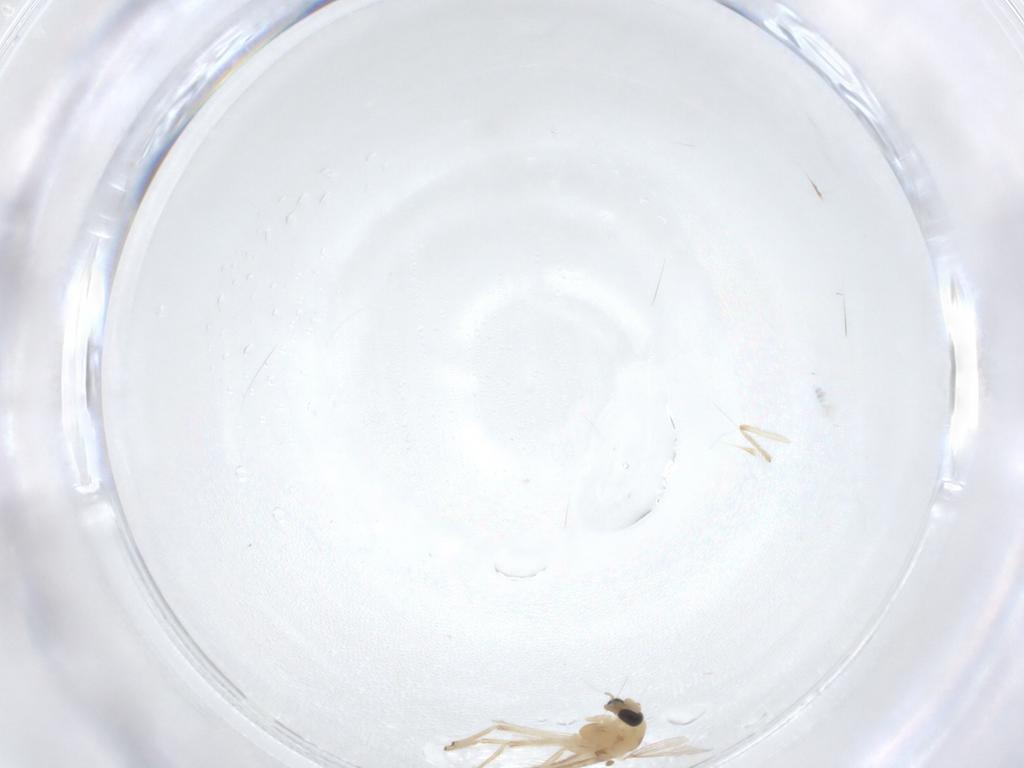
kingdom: Animalia
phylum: Arthropoda
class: Insecta
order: Diptera
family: Chironomidae
